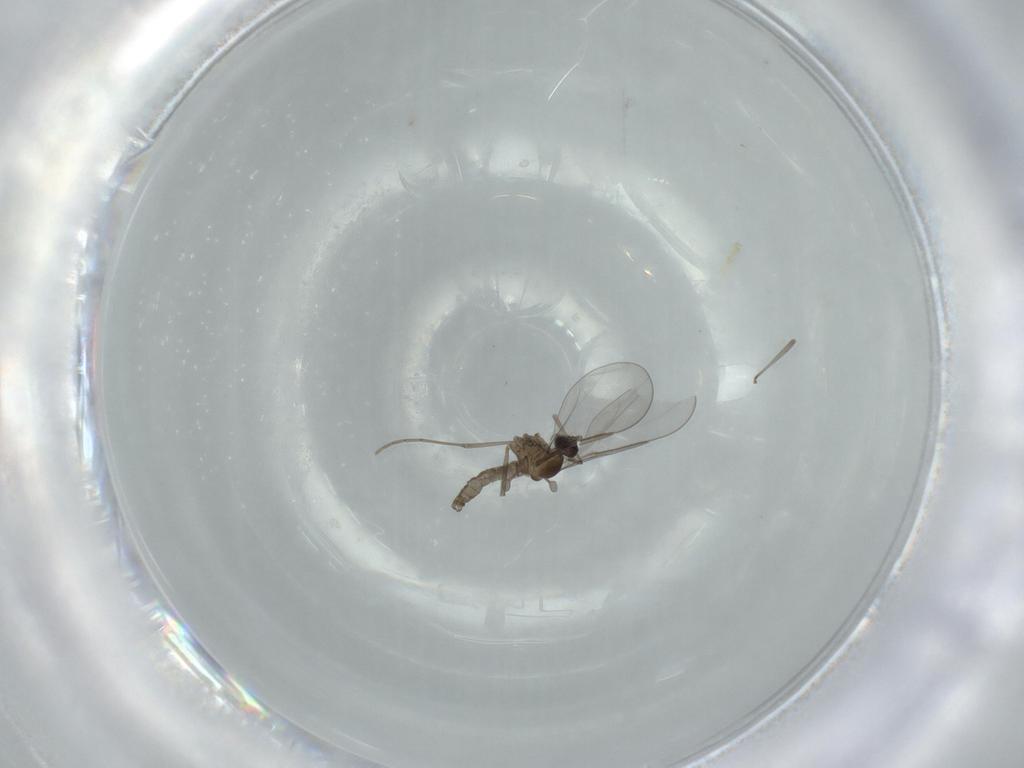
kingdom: Animalia
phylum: Arthropoda
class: Insecta
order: Diptera
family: Cecidomyiidae
